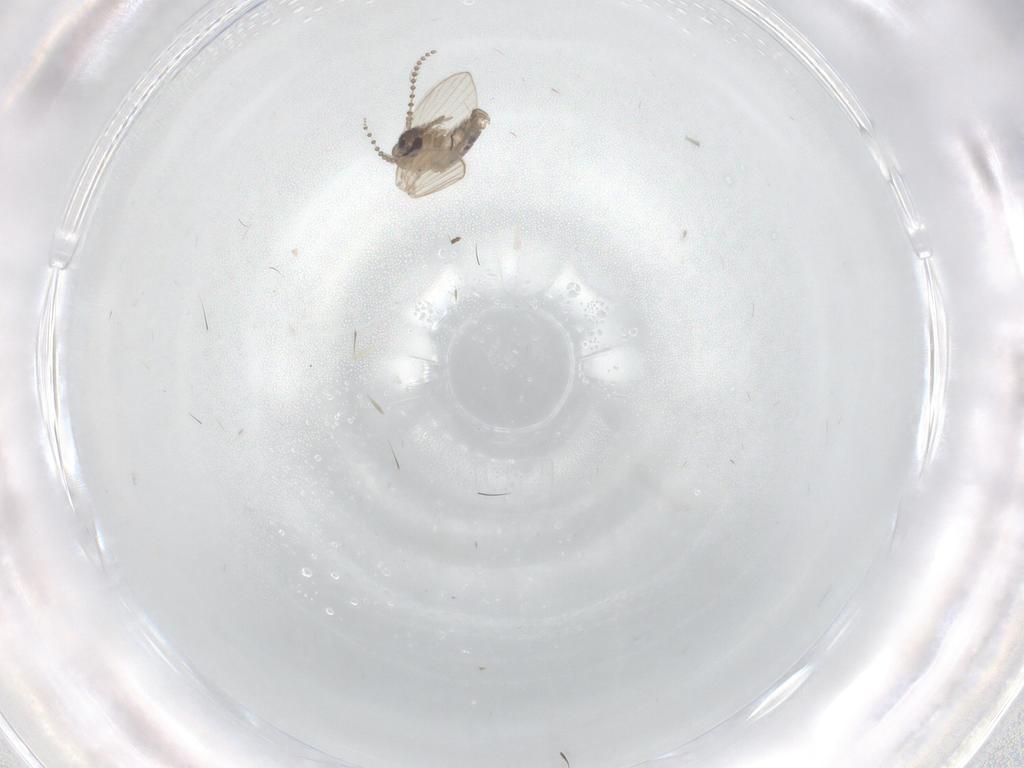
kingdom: Animalia
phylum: Arthropoda
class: Insecta
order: Diptera
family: Psychodidae
